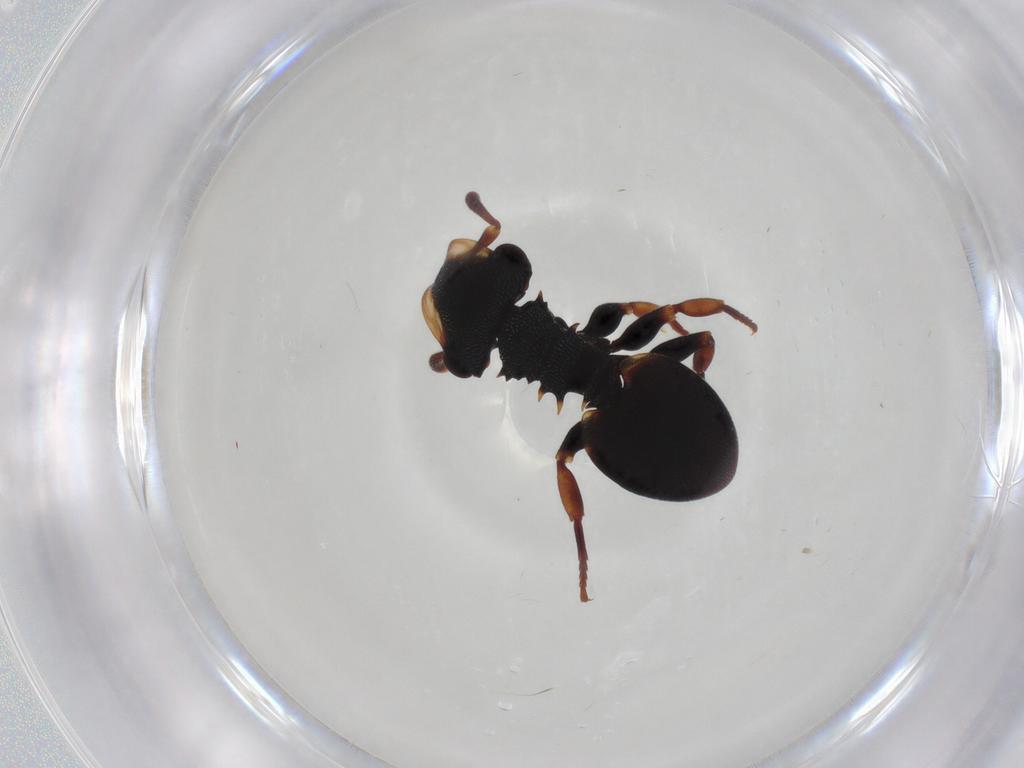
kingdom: Animalia
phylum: Arthropoda
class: Insecta
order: Hymenoptera
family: Formicidae
